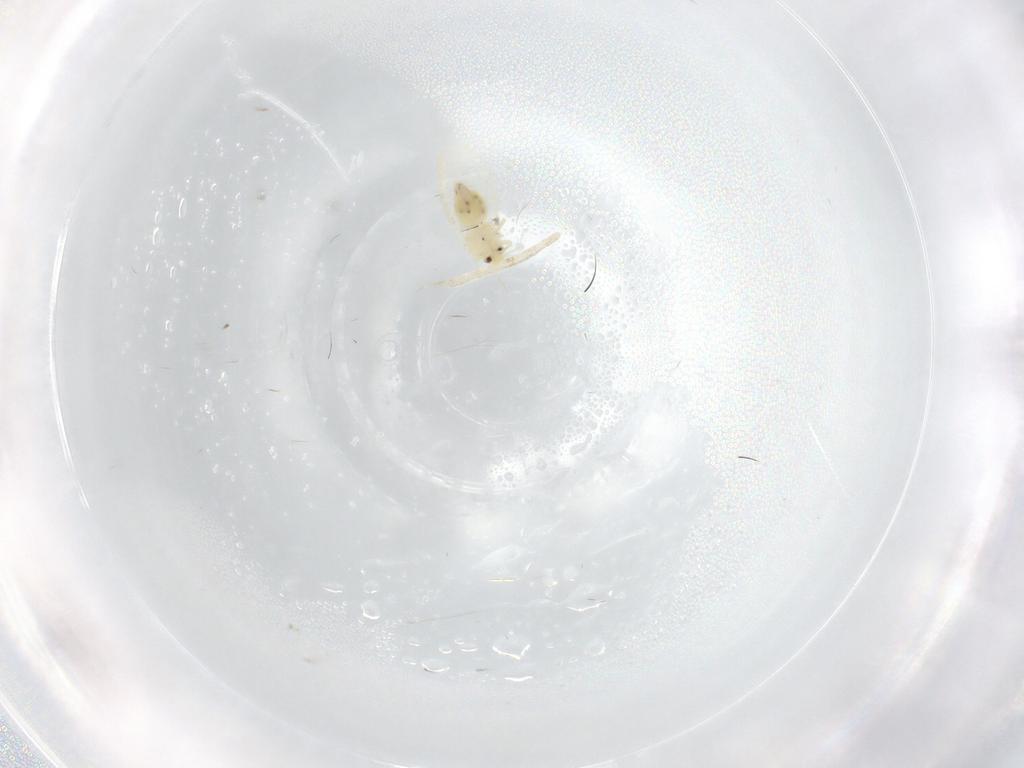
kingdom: Animalia
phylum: Arthropoda
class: Insecta
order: Hemiptera
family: Aleyrodidae
